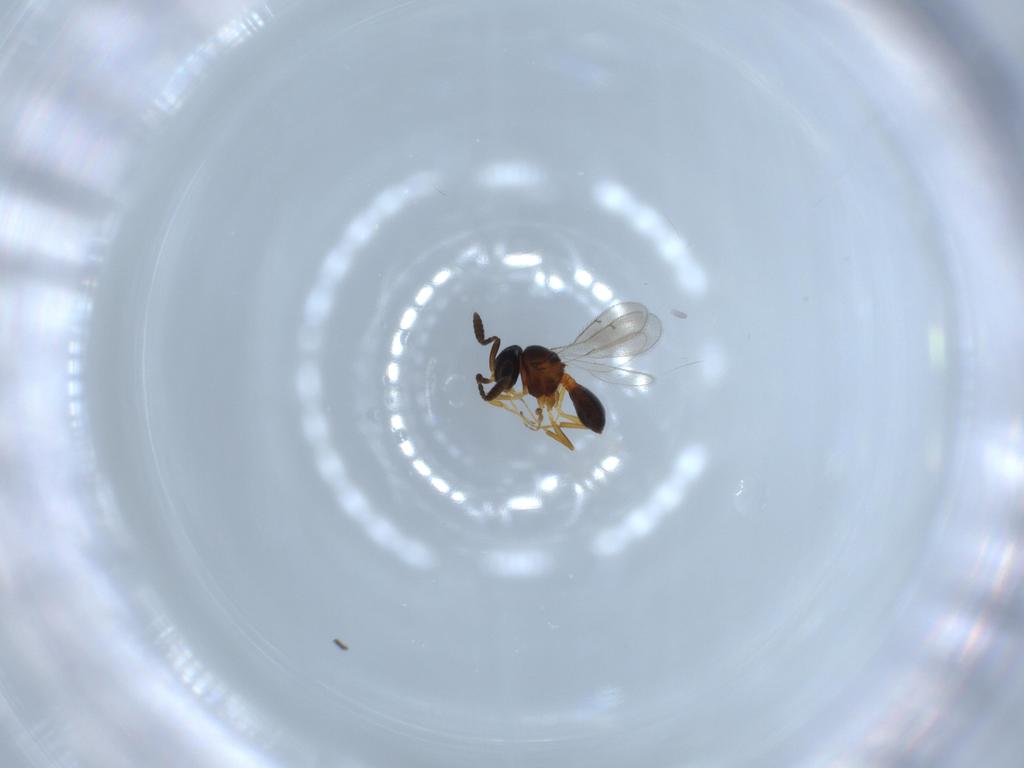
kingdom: Animalia
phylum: Arthropoda
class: Insecta
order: Hymenoptera
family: Scelionidae
